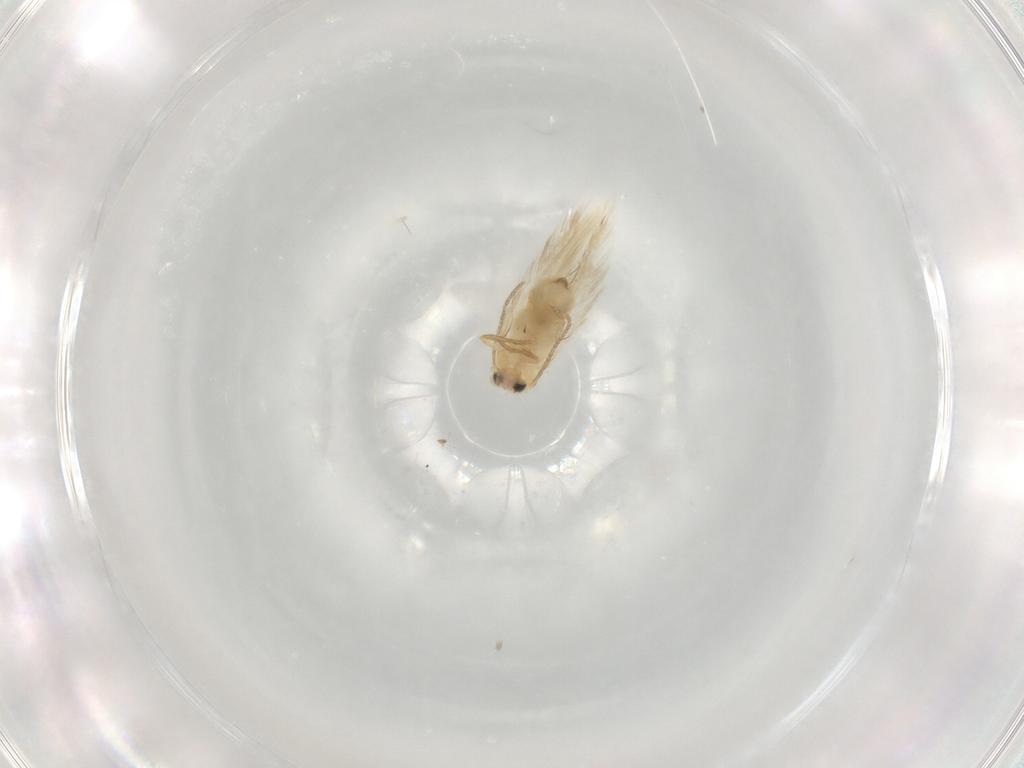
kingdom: Animalia
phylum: Arthropoda
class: Insecta
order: Lepidoptera
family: Nepticulidae
